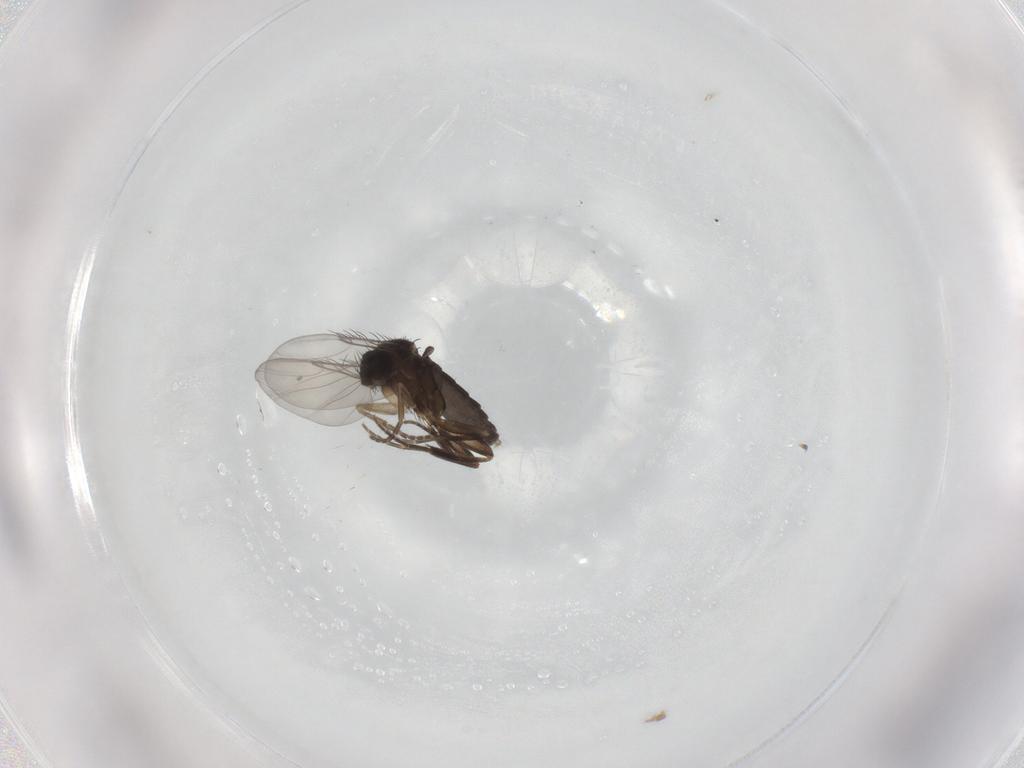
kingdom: Animalia
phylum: Arthropoda
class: Insecta
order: Diptera
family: Phoridae
